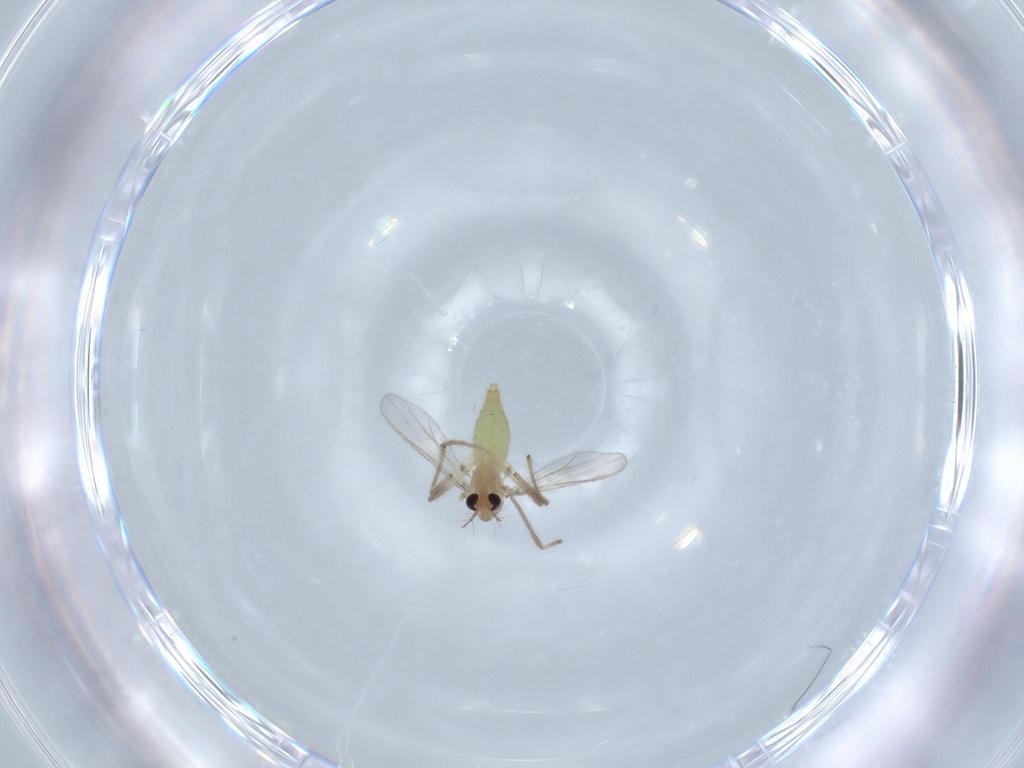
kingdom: Animalia
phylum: Arthropoda
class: Insecta
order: Diptera
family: Chironomidae
